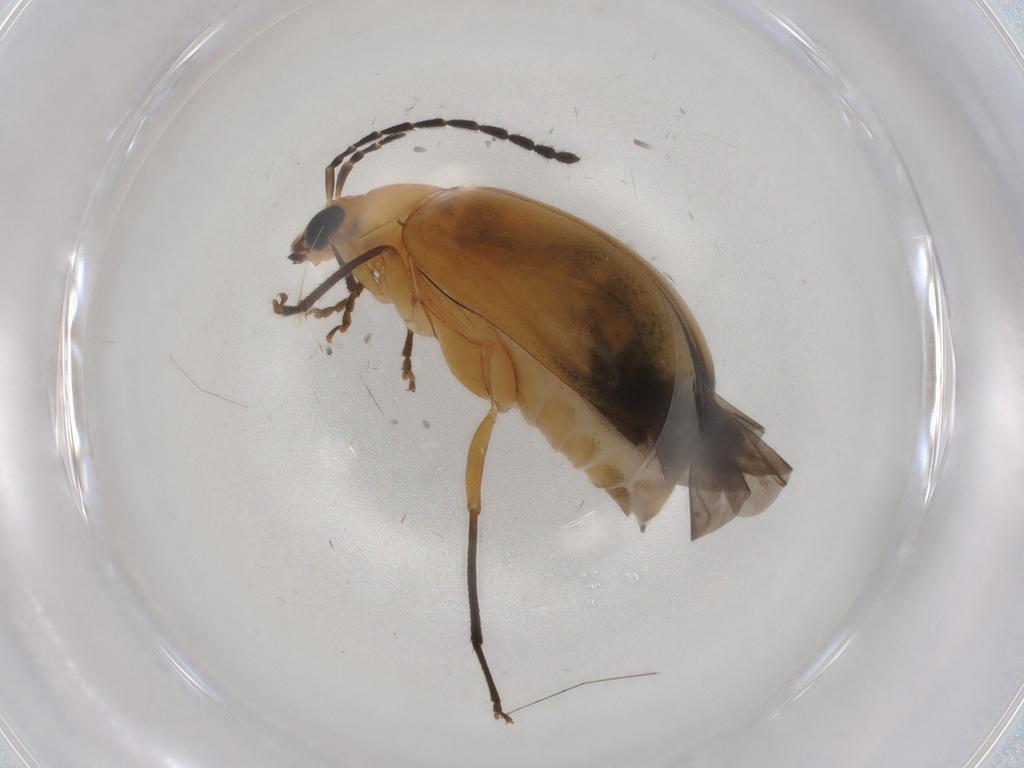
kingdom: Animalia
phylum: Arthropoda
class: Insecta
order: Coleoptera
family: Chrysomelidae
